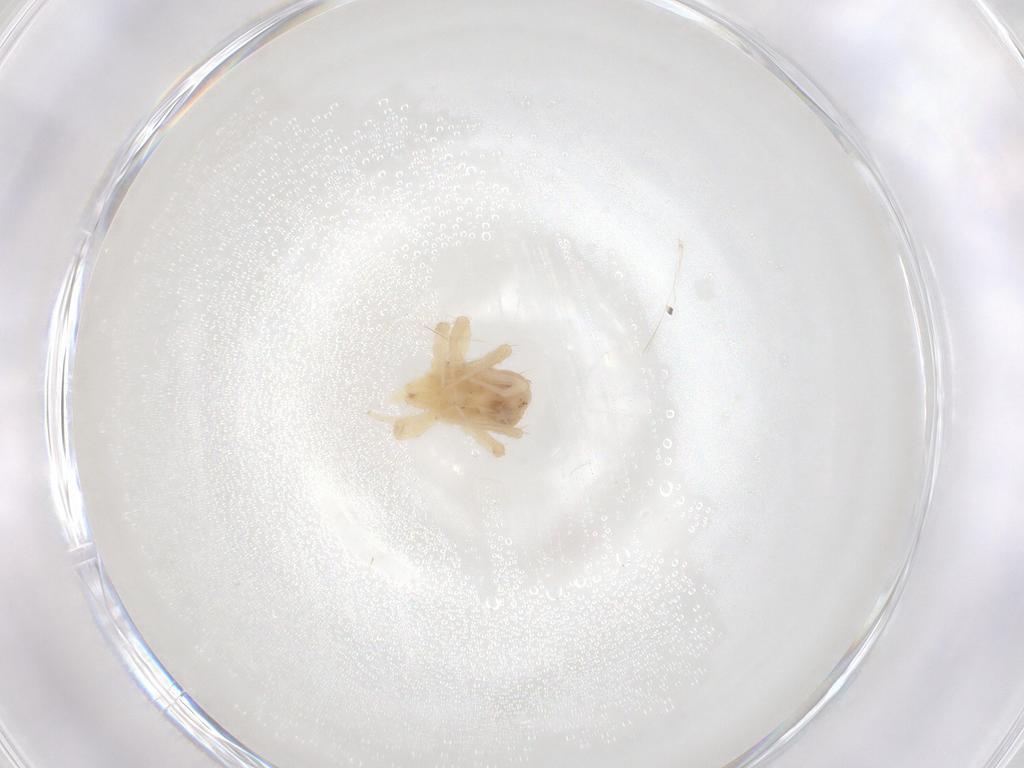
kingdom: Animalia
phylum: Arthropoda
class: Arachnida
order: Trombidiformes
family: Anystidae
